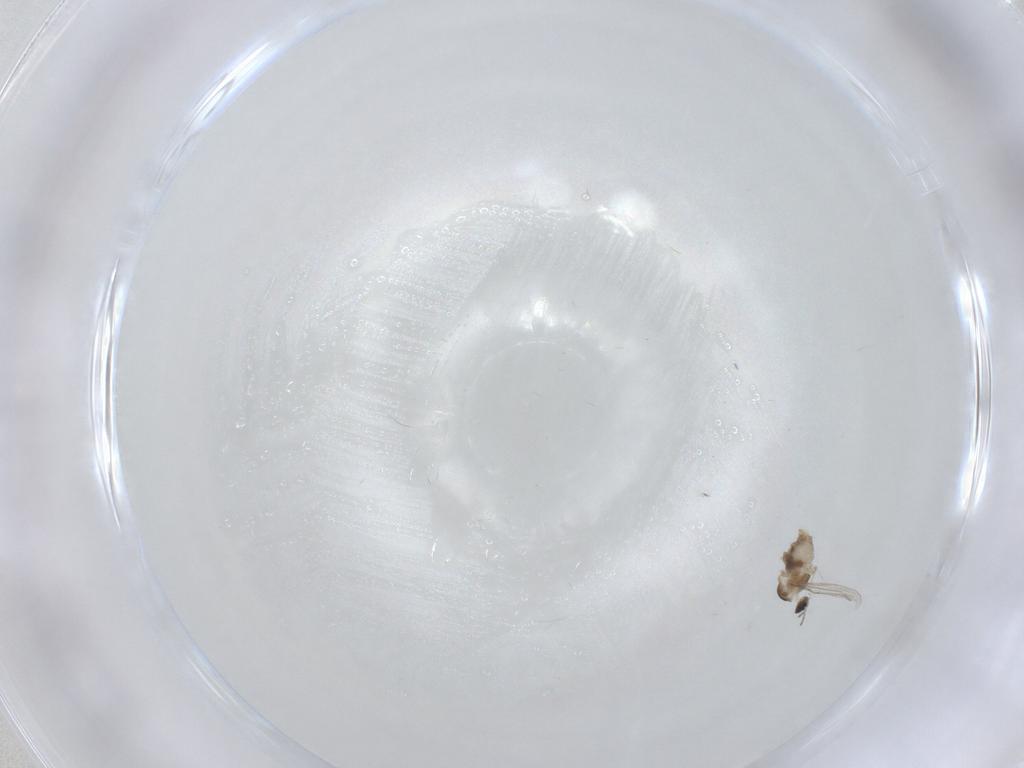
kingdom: Animalia
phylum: Arthropoda
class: Insecta
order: Diptera
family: Cecidomyiidae
